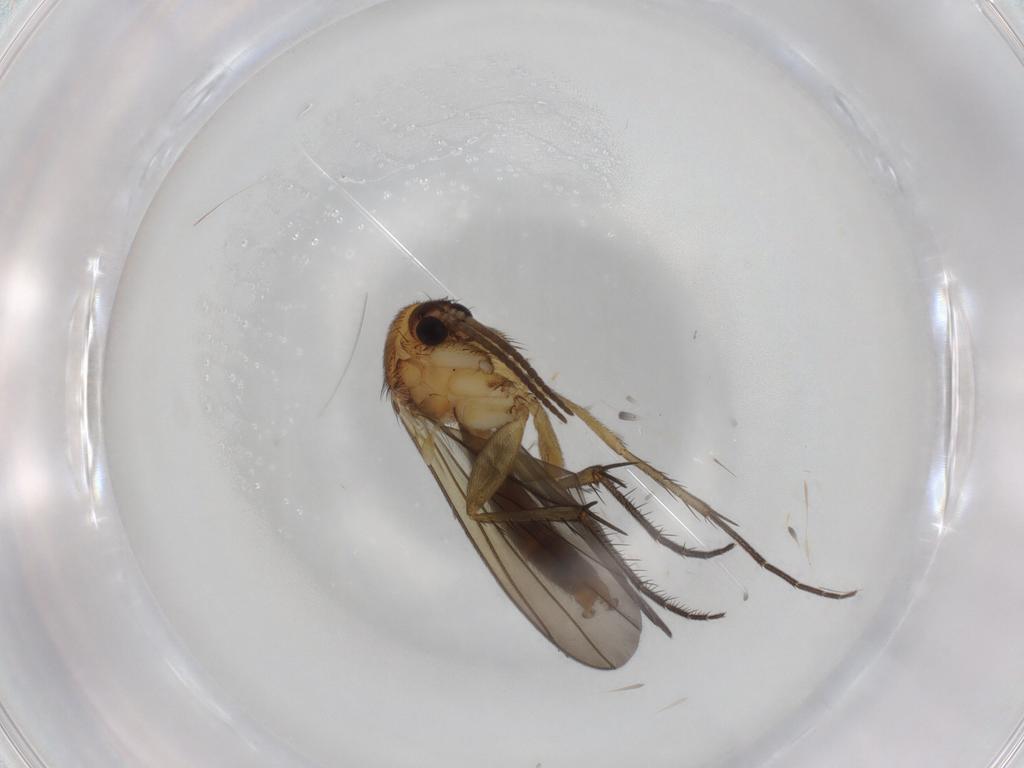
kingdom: Animalia
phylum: Arthropoda
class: Insecta
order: Diptera
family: Mycetophilidae
